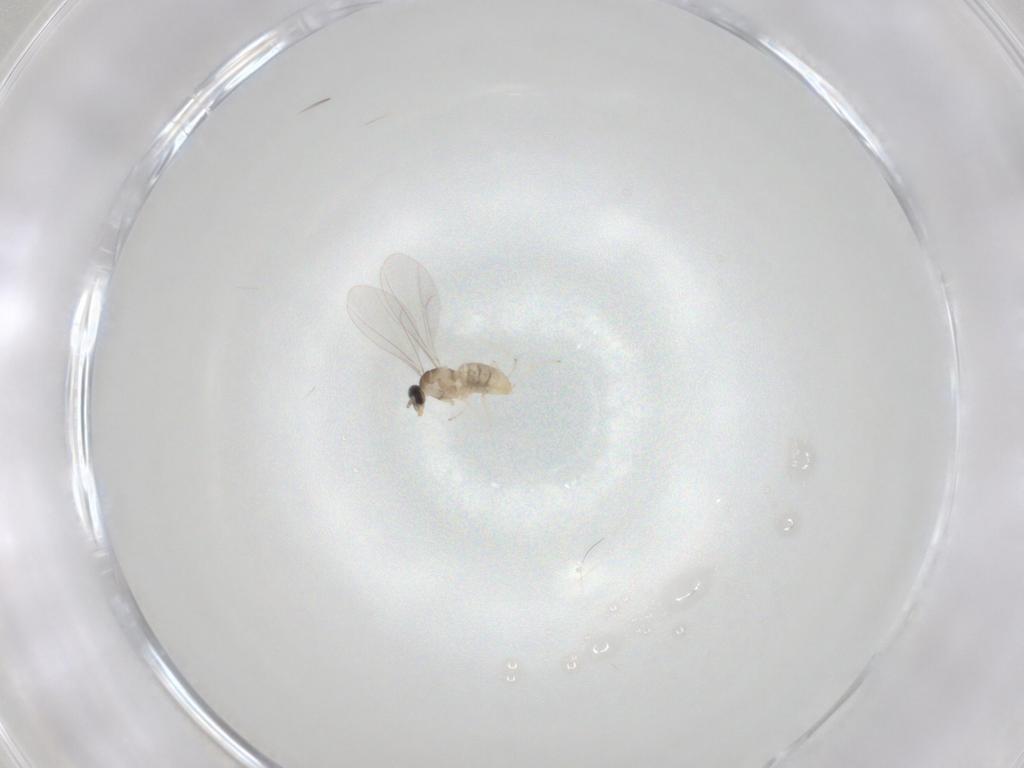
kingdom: Animalia
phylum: Arthropoda
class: Insecta
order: Diptera
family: Cecidomyiidae
